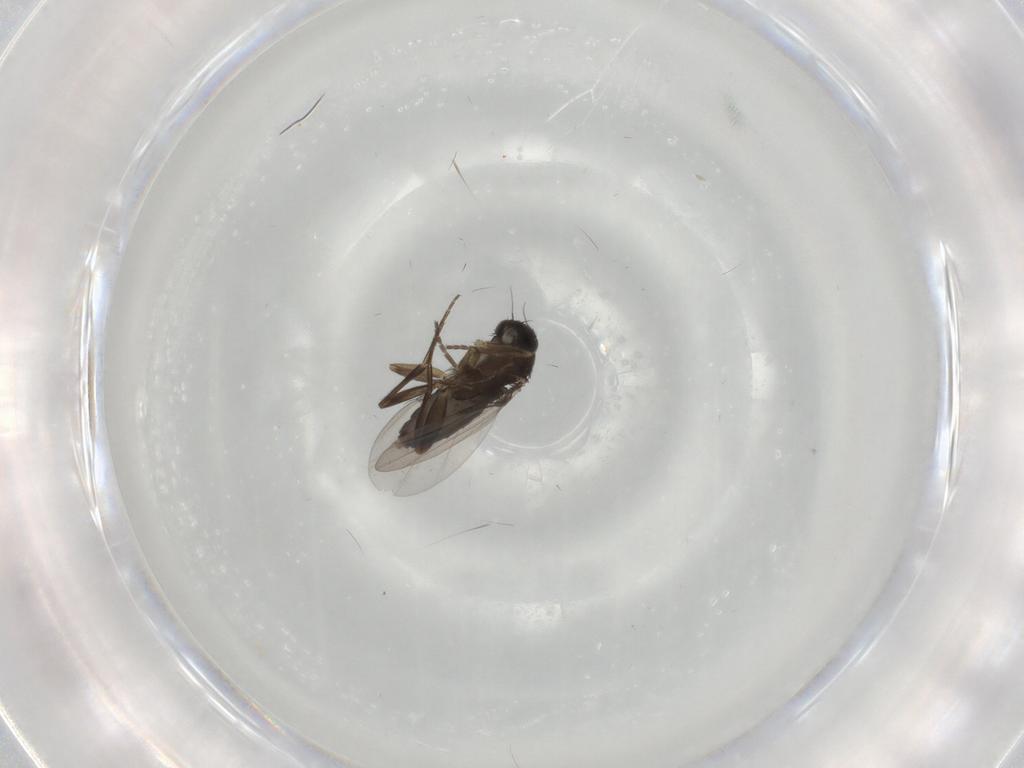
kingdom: Animalia
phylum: Arthropoda
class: Insecta
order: Diptera
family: Phoridae
